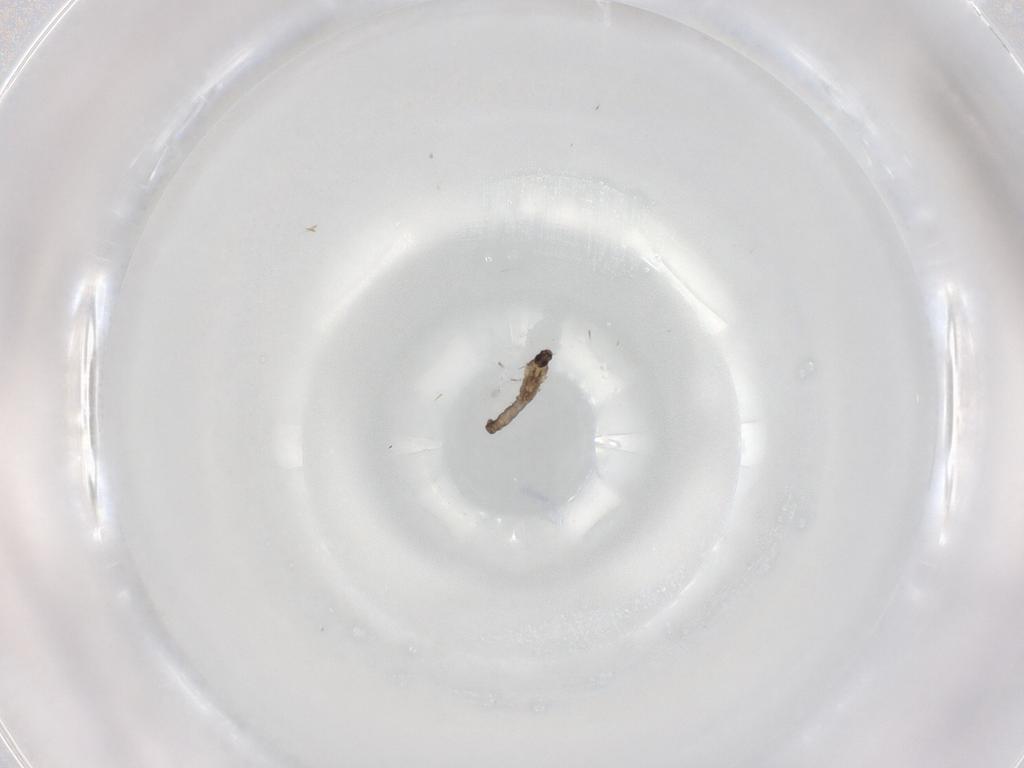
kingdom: Animalia
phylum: Arthropoda
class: Insecta
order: Diptera
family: Cecidomyiidae
